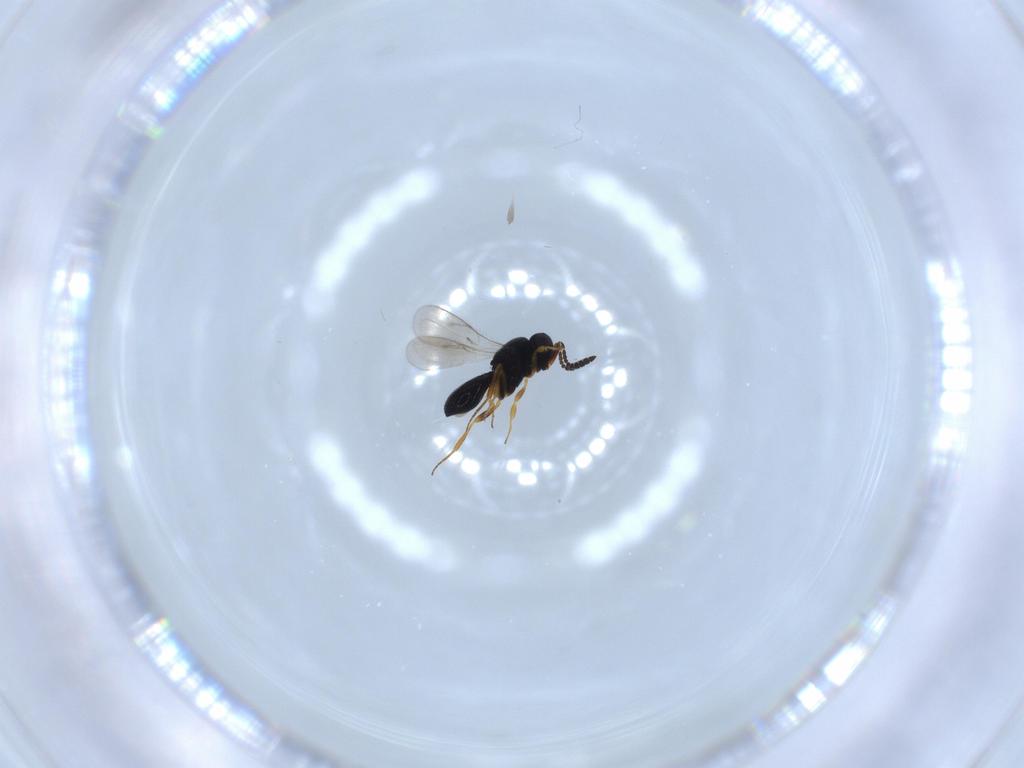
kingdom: Animalia
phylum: Arthropoda
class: Insecta
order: Hymenoptera
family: Scelionidae
